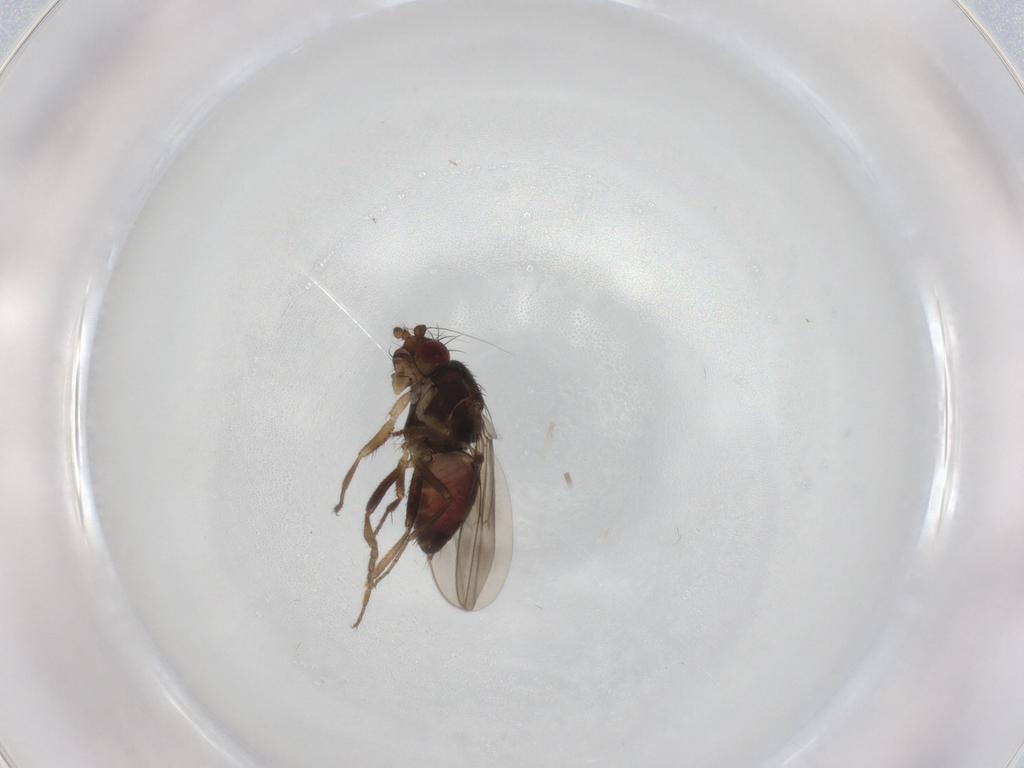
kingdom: Animalia
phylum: Arthropoda
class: Insecta
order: Diptera
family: Sphaeroceridae
